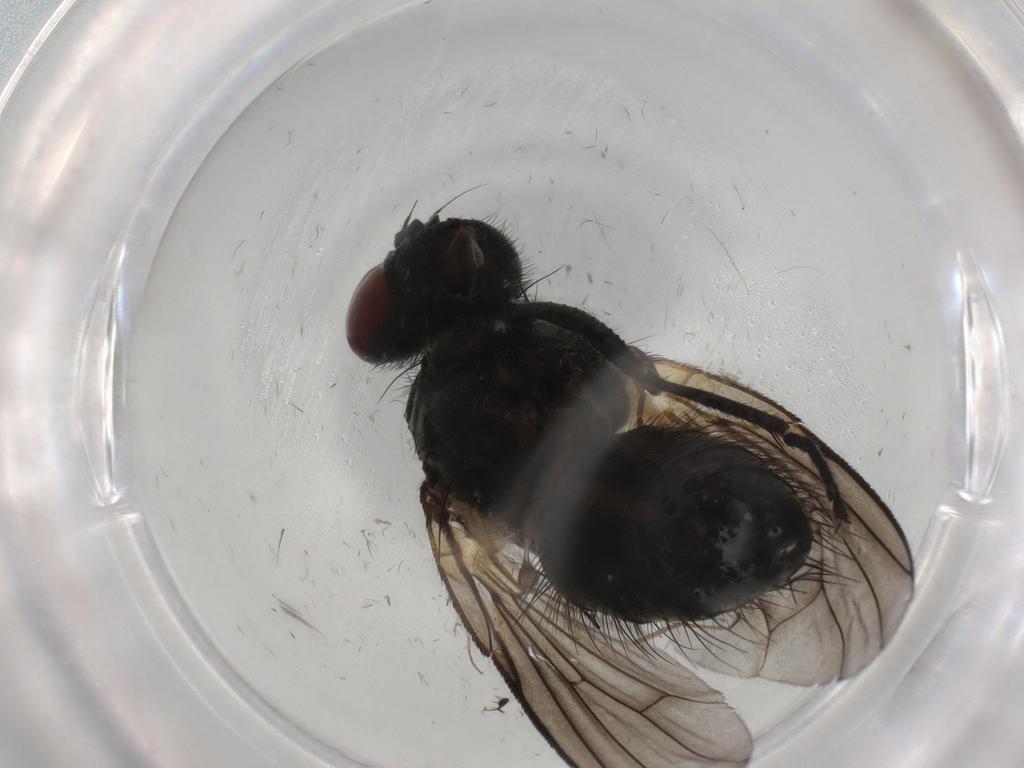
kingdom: Animalia
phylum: Arthropoda
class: Insecta
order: Diptera
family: Muscidae
